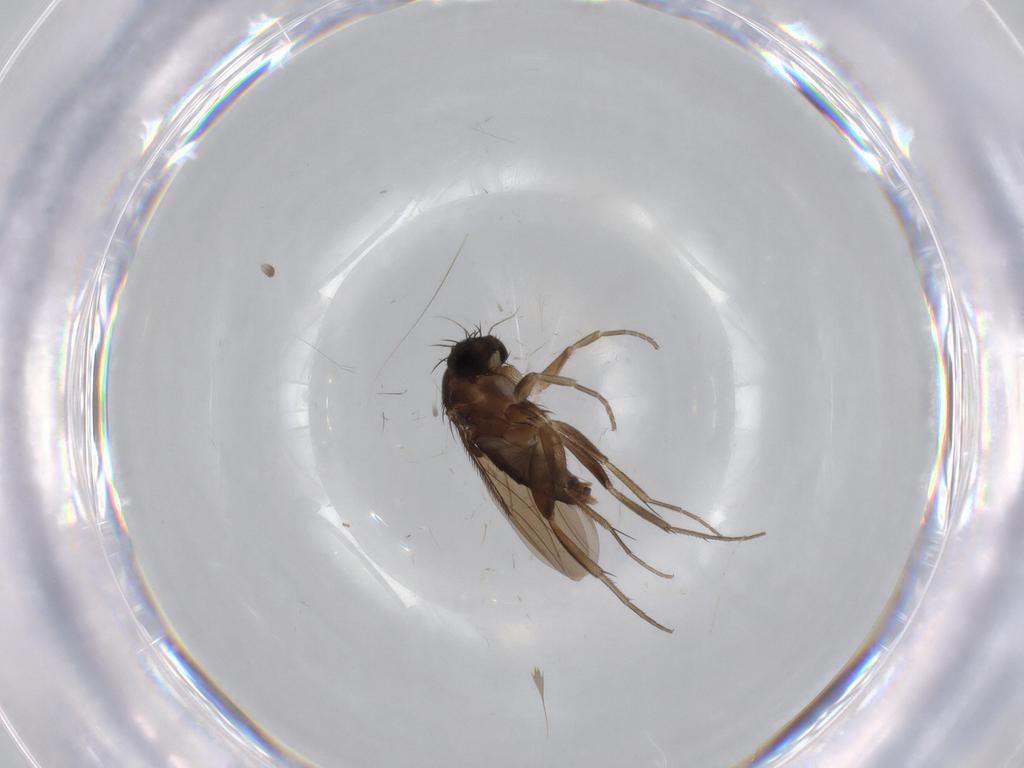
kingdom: Animalia
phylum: Arthropoda
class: Insecta
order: Diptera
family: Phoridae
